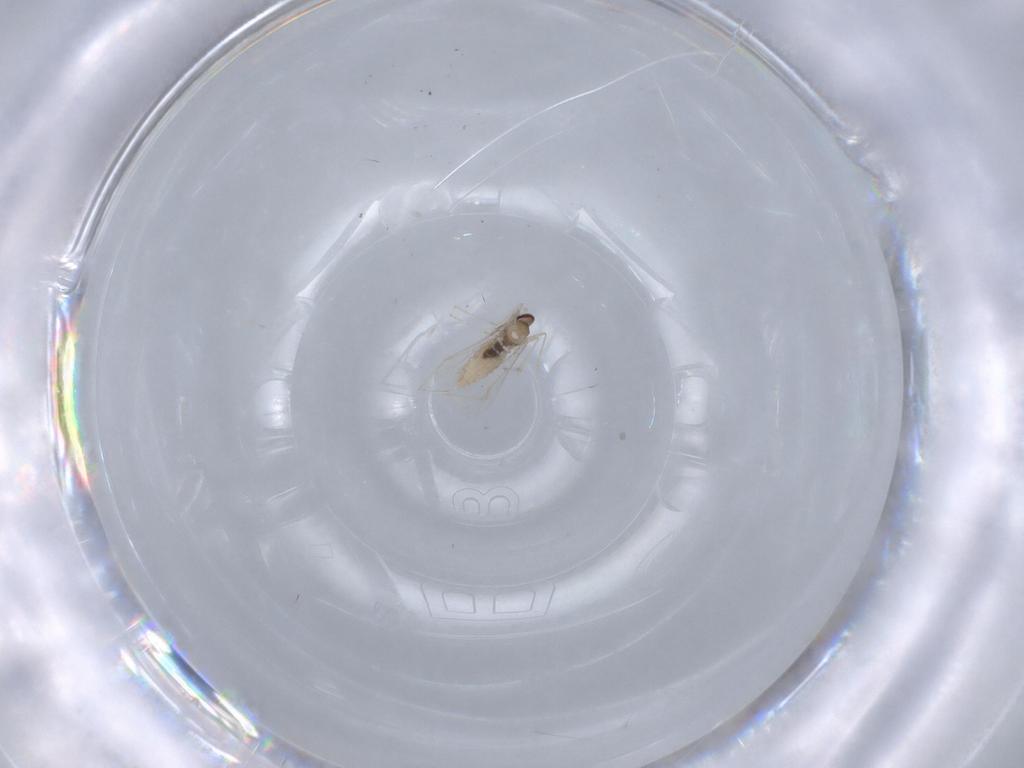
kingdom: Animalia
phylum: Arthropoda
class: Insecta
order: Diptera
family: Cecidomyiidae
